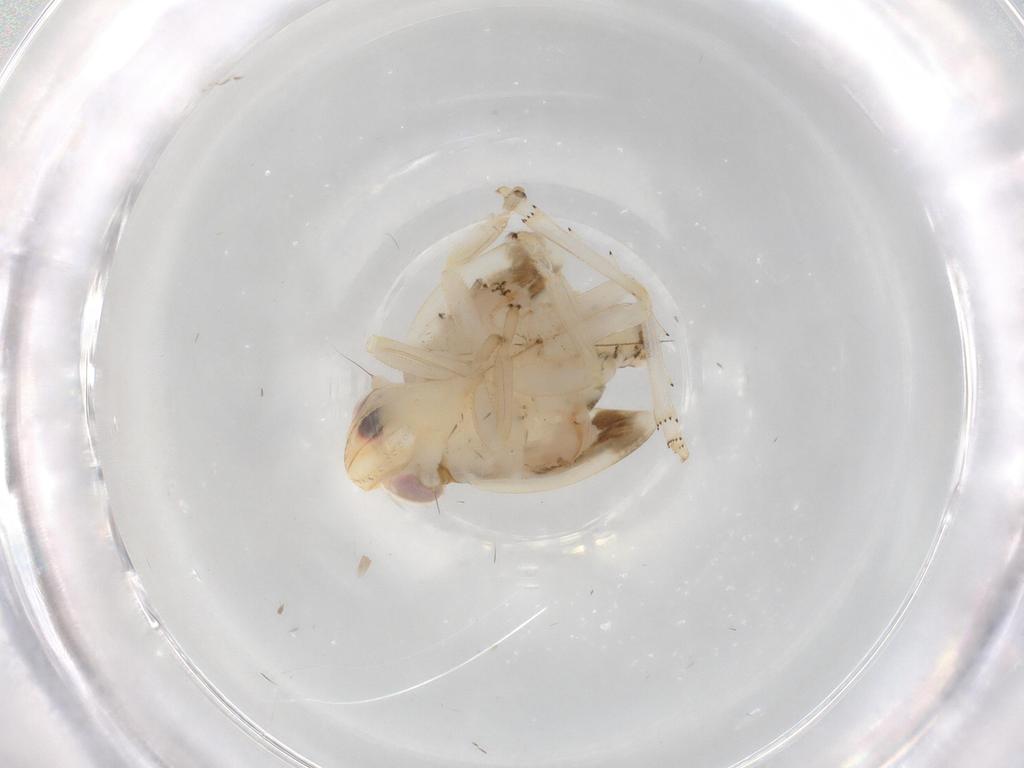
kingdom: Animalia
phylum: Arthropoda
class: Insecta
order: Hemiptera
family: Nogodinidae
